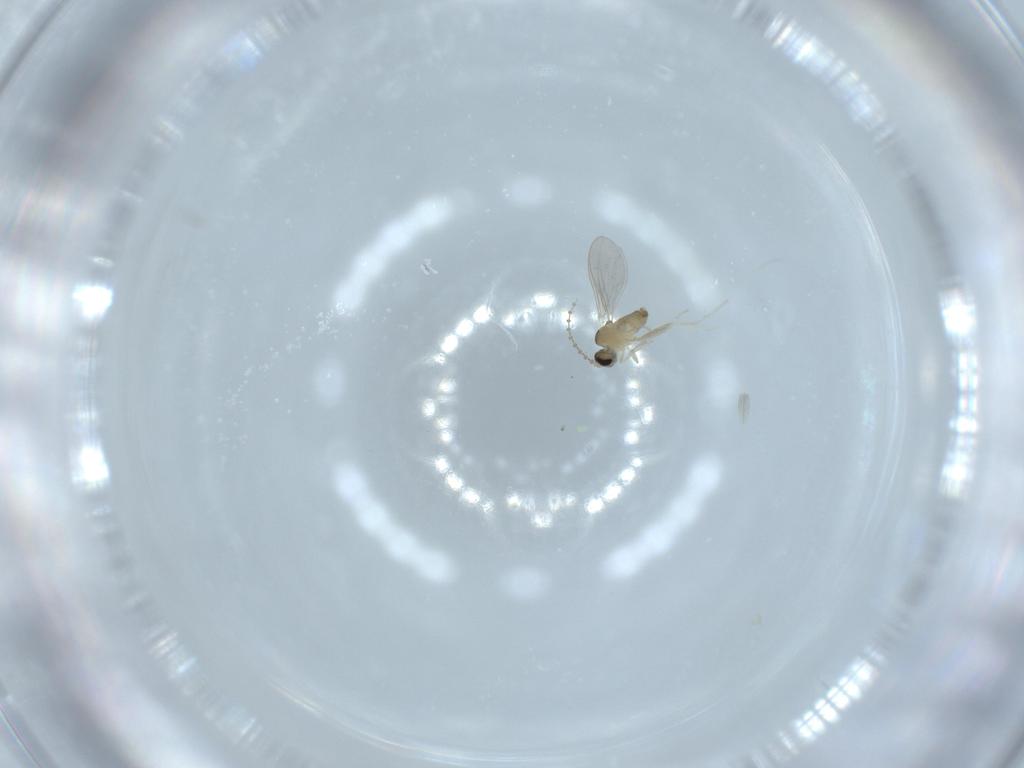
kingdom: Animalia
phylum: Arthropoda
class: Insecta
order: Diptera
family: Cecidomyiidae
